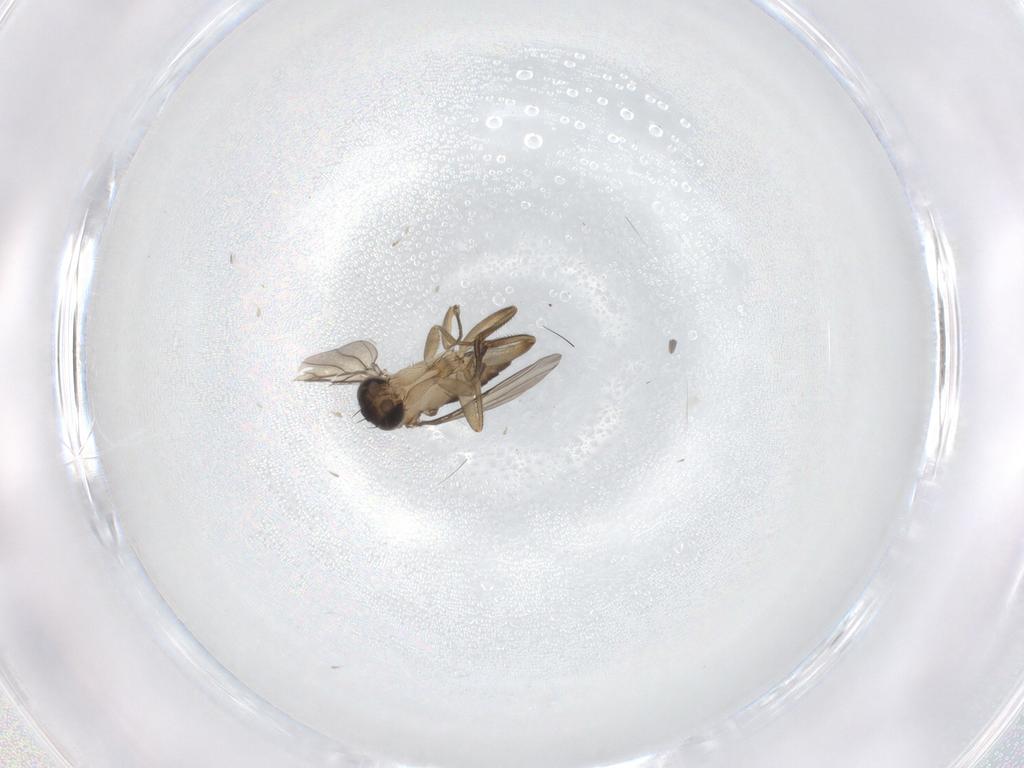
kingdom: Animalia
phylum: Arthropoda
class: Insecta
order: Diptera
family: Phoridae
